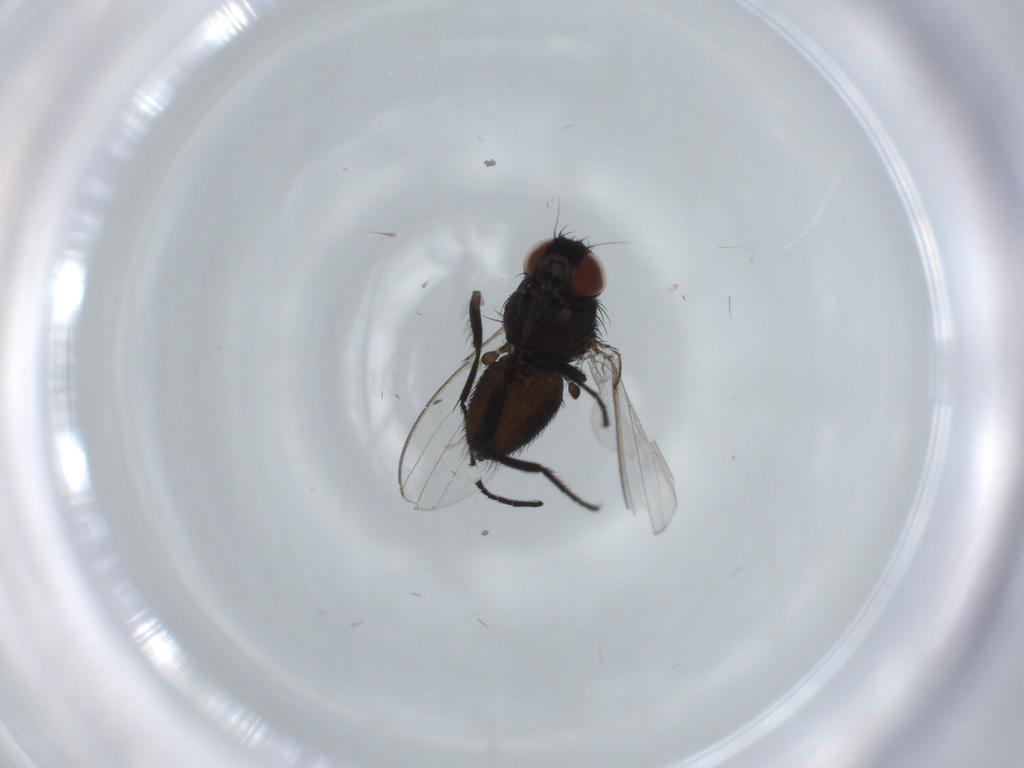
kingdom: Animalia
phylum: Arthropoda
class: Insecta
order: Diptera
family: Milichiidae
